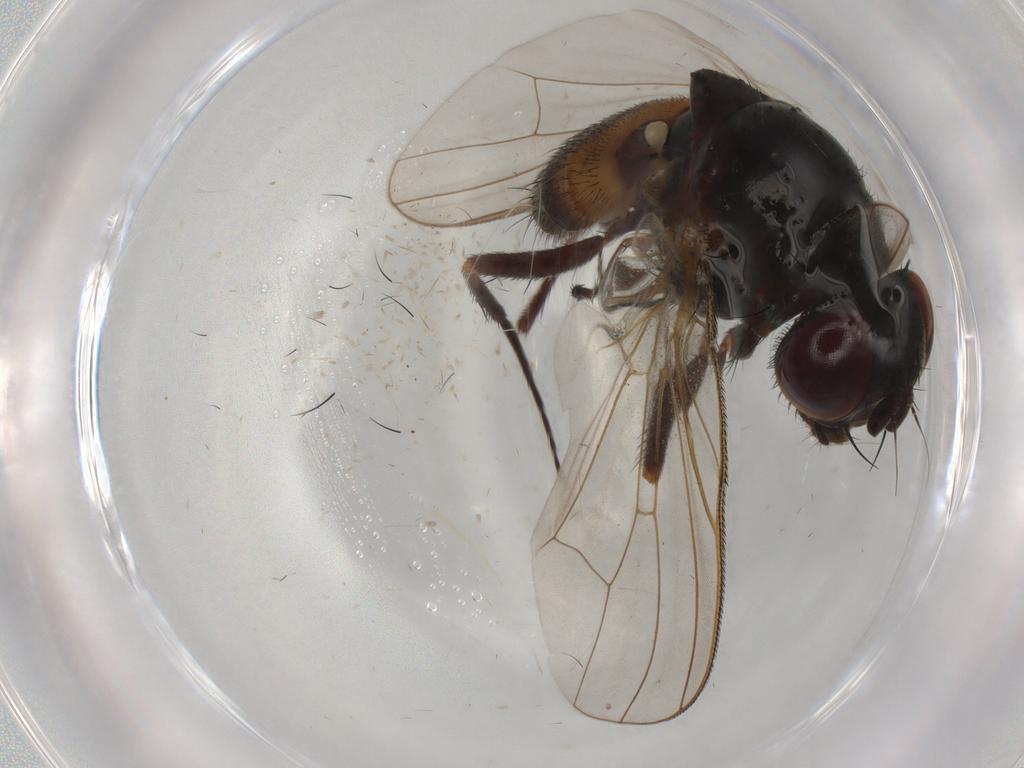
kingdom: Animalia
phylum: Arthropoda
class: Insecta
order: Diptera
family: Fannia
